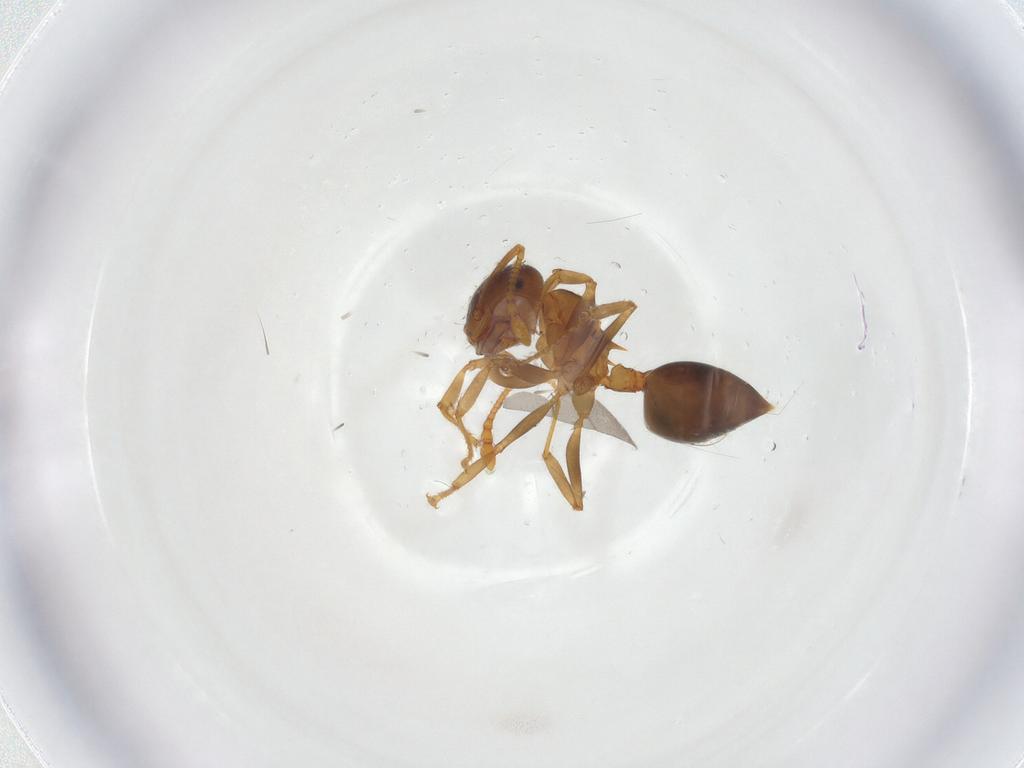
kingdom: Animalia
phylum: Arthropoda
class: Insecta
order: Hymenoptera
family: Formicidae
